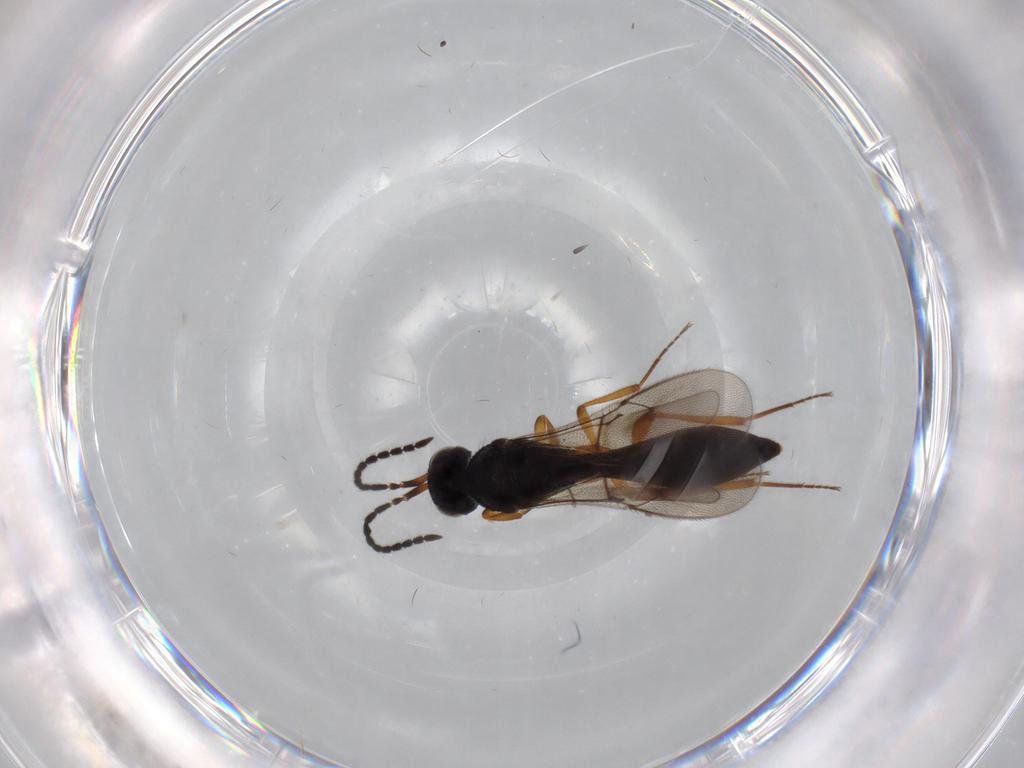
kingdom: Animalia
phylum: Arthropoda
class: Insecta
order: Hymenoptera
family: Scelionidae
